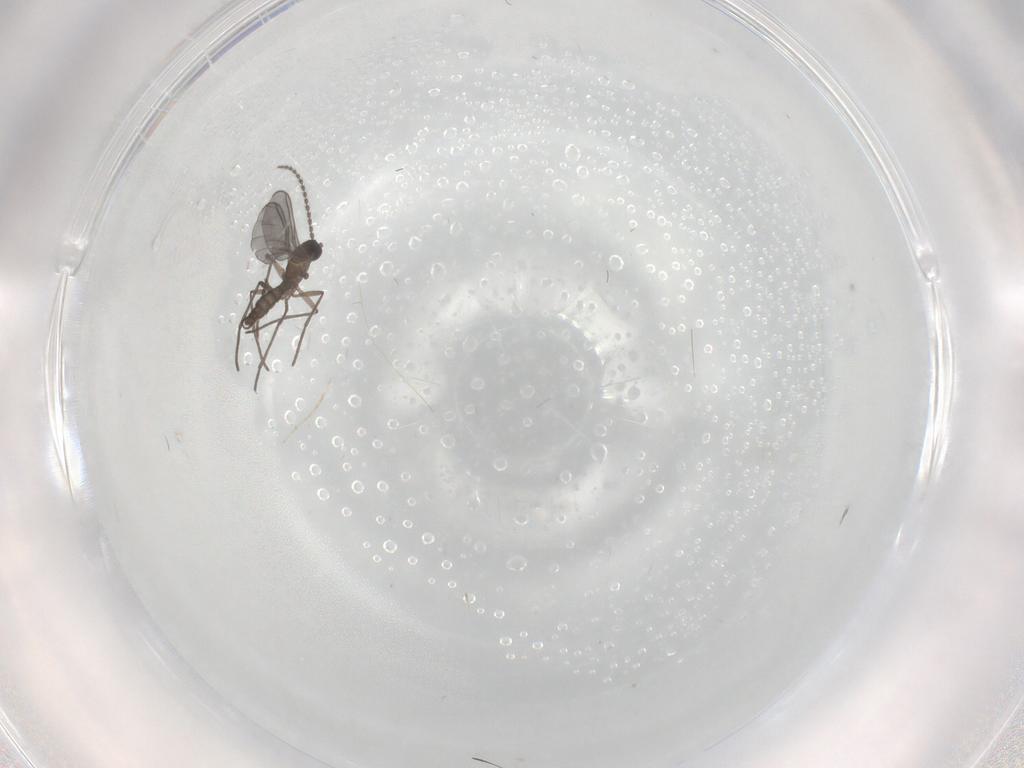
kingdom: Animalia
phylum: Arthropoda
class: Insecta
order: Diptera
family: Chironomidae
